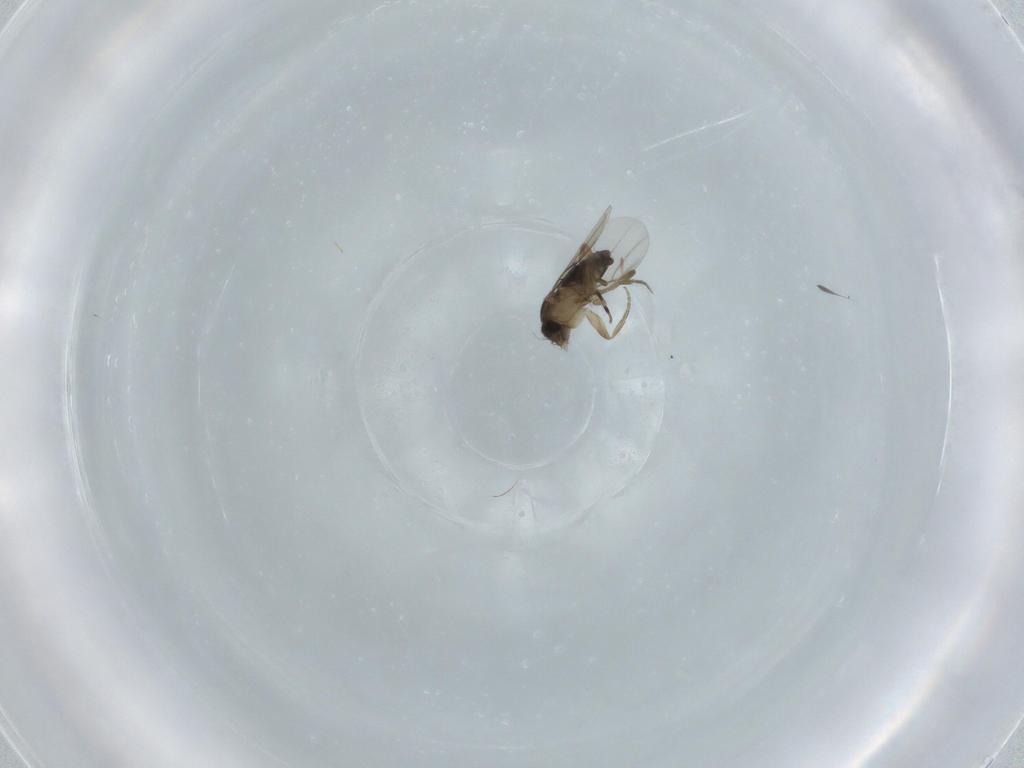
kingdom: Animalia
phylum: Arthropoda
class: Insecta
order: Diptera
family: Phoridae
